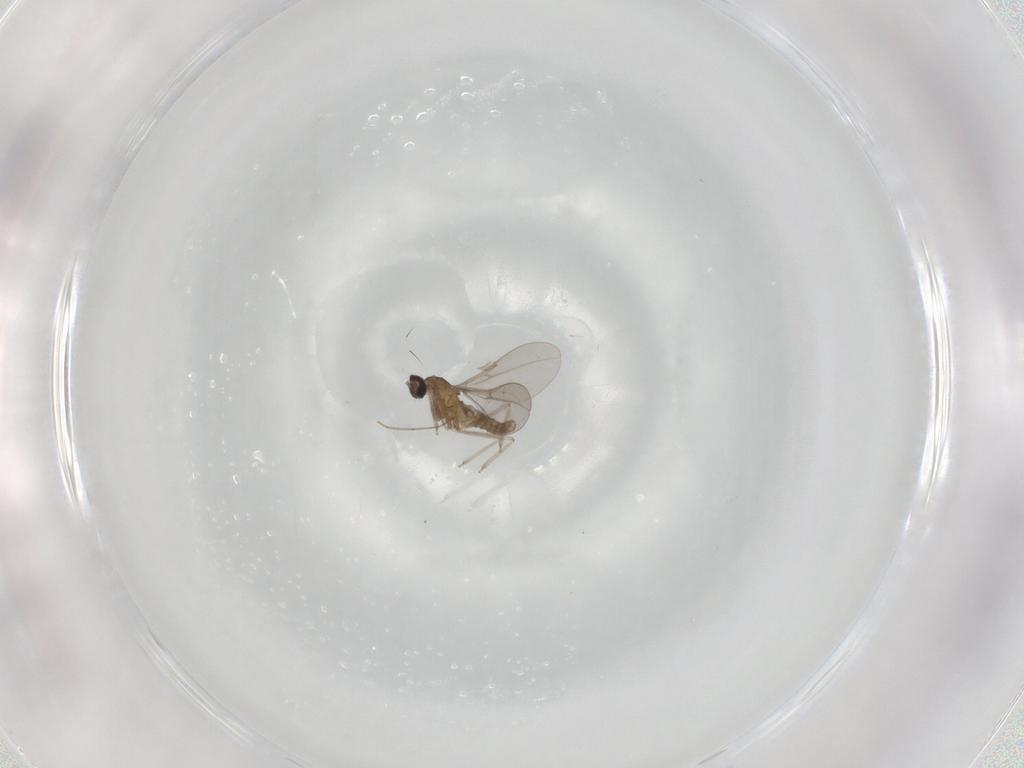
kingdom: Animalia
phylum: Arthropoda
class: Insecta
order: Diptera
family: Cecidomyiidae
